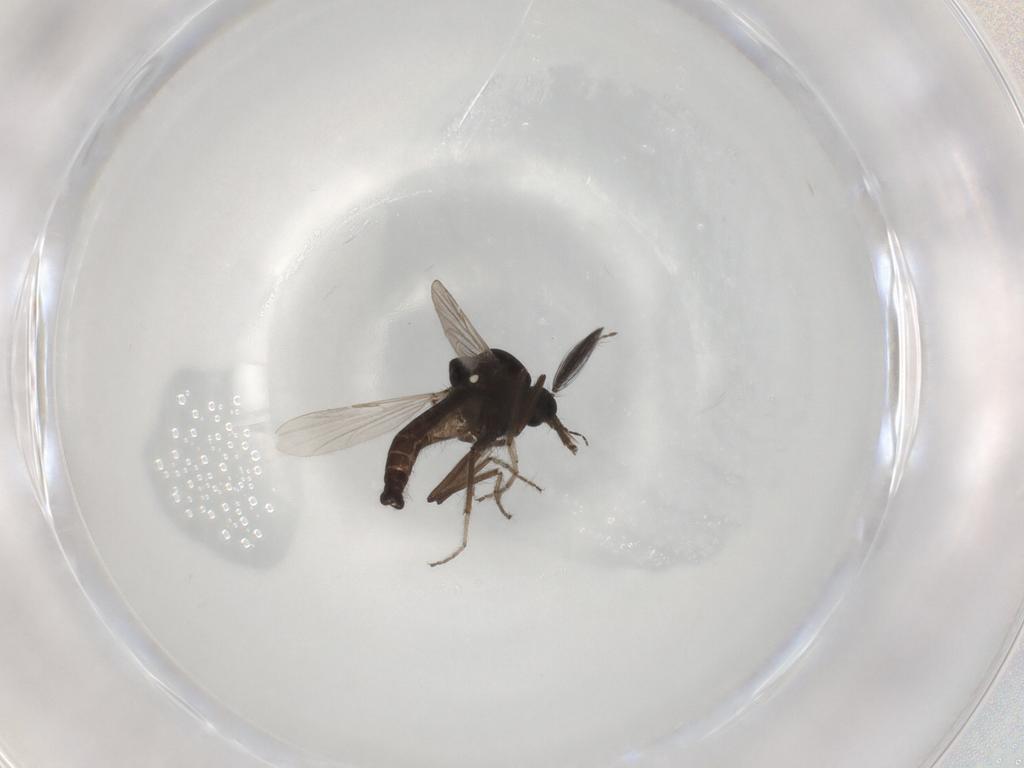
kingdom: Animalia
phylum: Arthropoda
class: Insecta
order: Diptera
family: Ceratopogonidae
